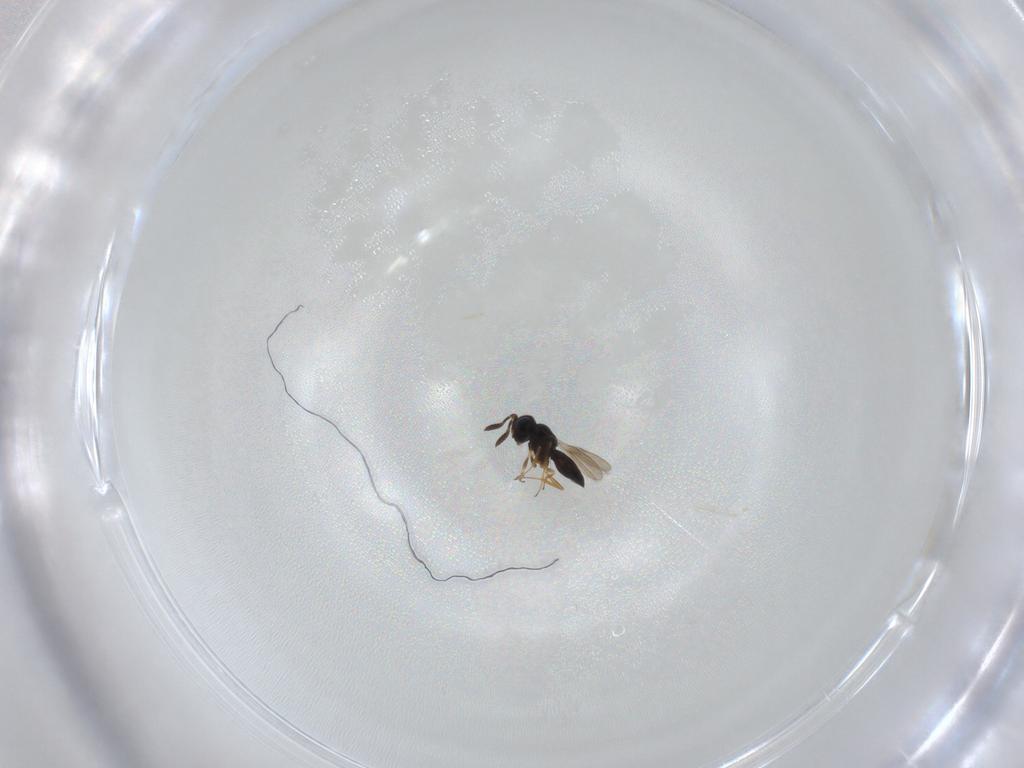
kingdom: Animalia
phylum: Arthropoda
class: Insecta
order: Hymenoptera
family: Scelionidae
